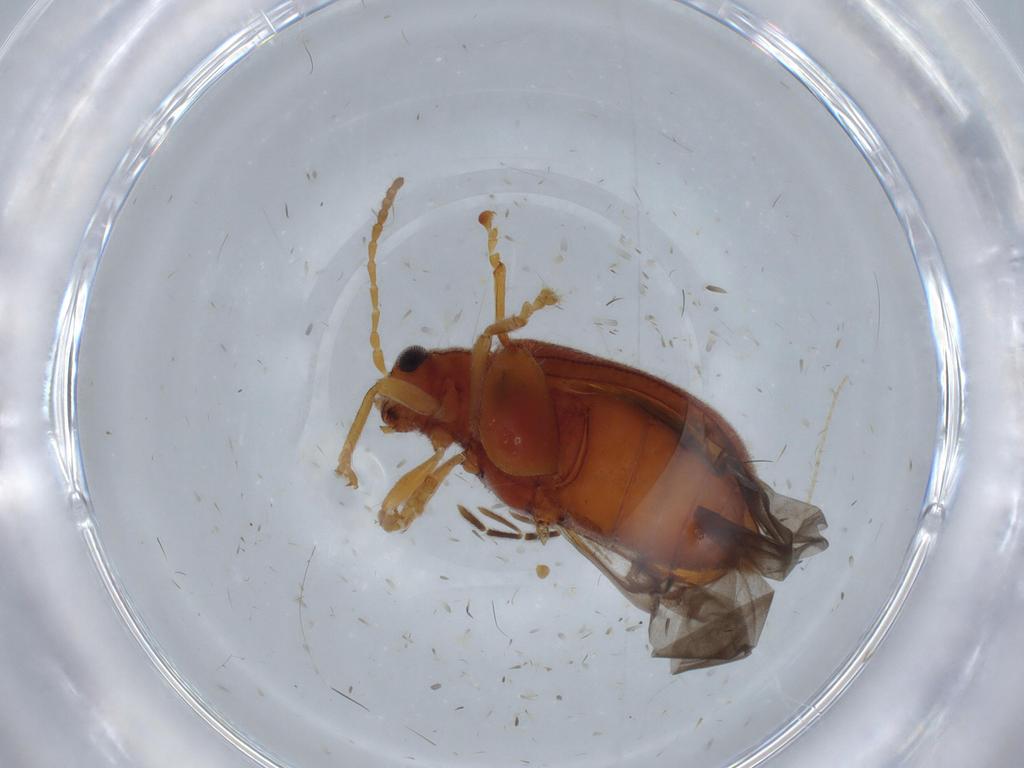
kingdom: Animalia
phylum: Arthropoda
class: Insecta
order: Coleoptera
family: Chrysomelidae
